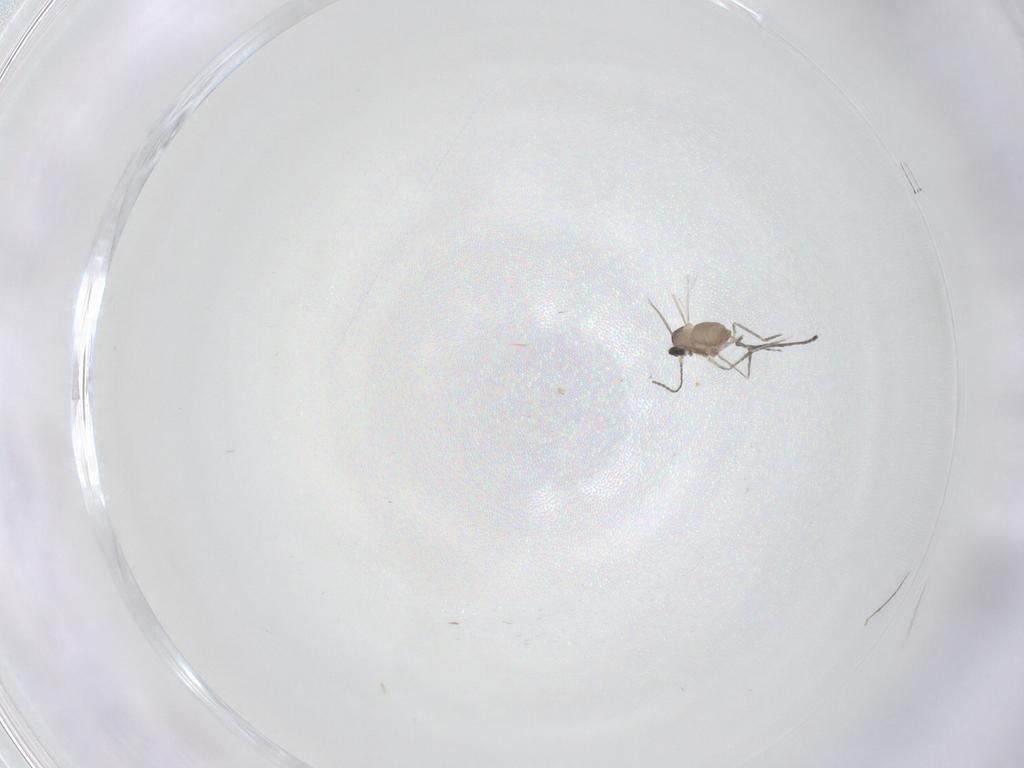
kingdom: Animalia
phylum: Arthropoda
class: Insecta
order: Diptera
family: Cecidomyiidae
